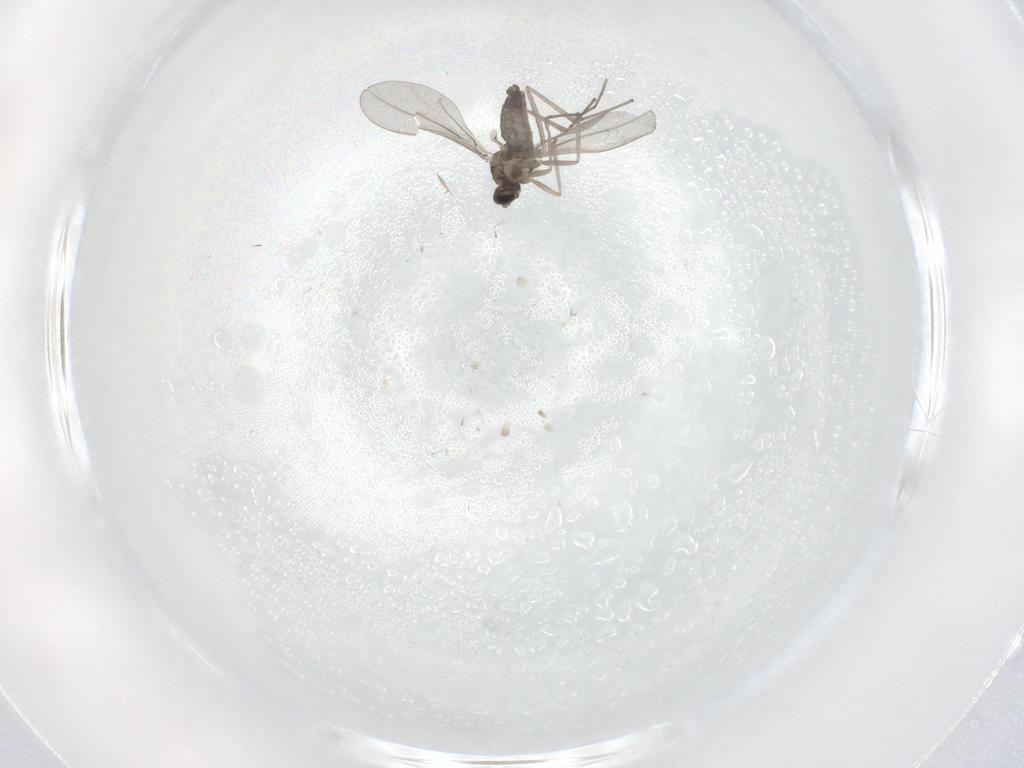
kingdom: Animalia
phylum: Arthropoda
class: Insecta
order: Diptera
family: Cecidomyiidae
